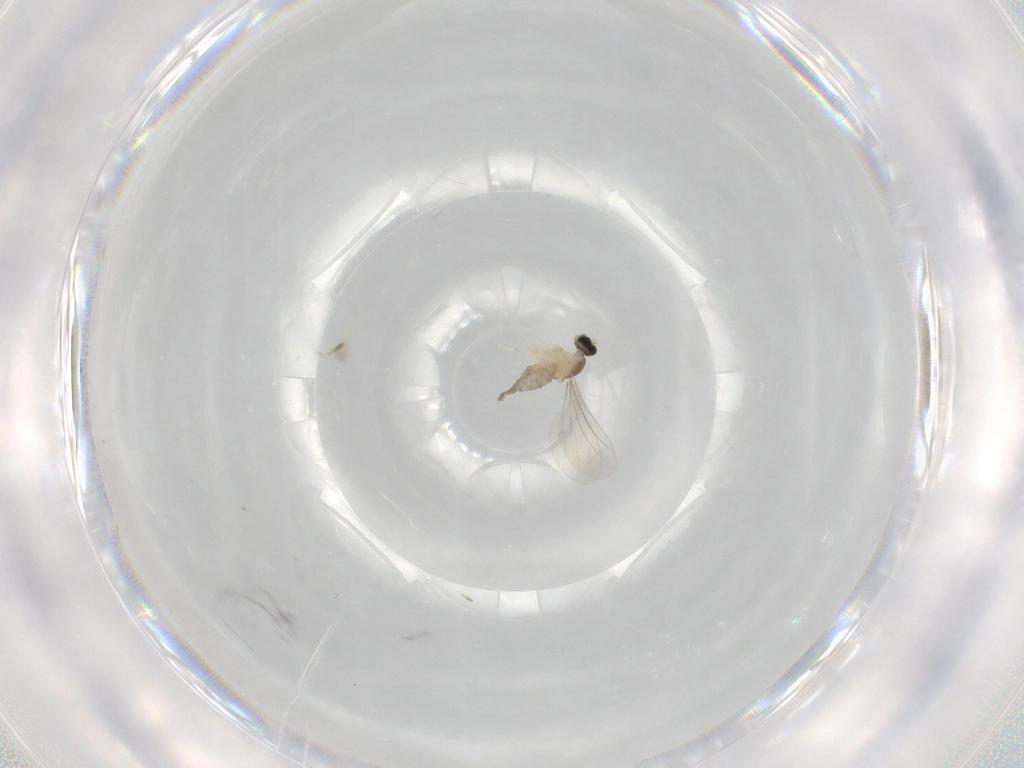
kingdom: Animalia
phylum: Arthropoda
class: Insecta
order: Diptera
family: Cecidomyiidae
